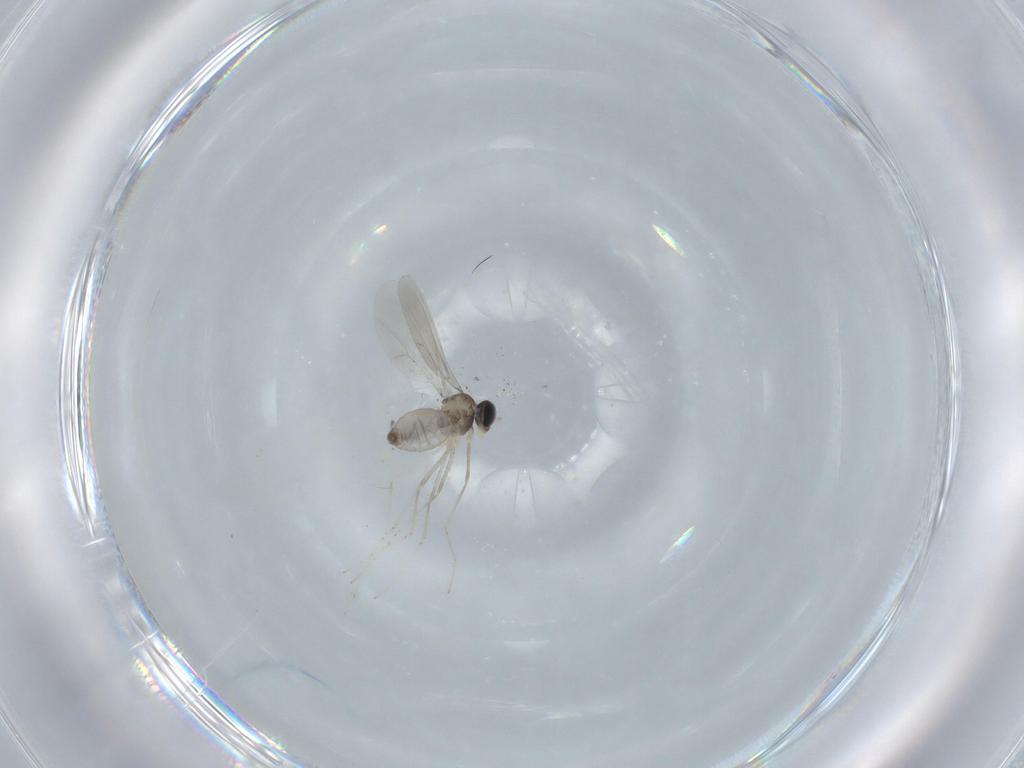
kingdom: Animalia
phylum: Arthropoda
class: Insecta
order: Diptera
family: Cecidomyiidae
